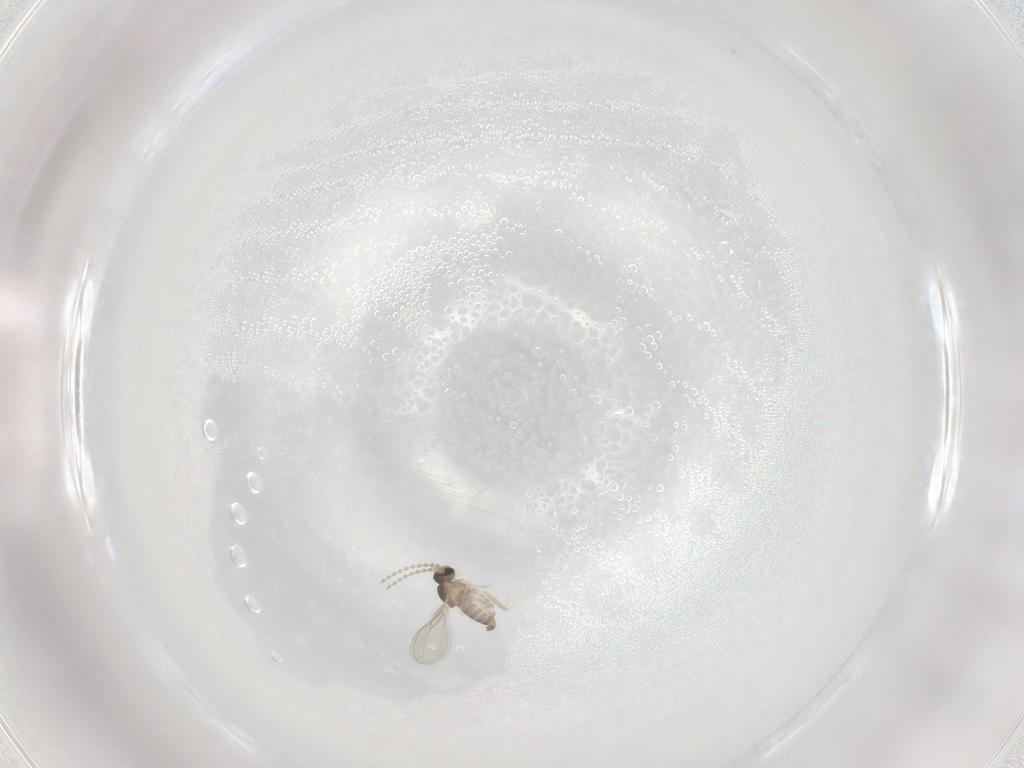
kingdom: Animalia
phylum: Arthropoda
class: Insecta
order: Diptera
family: Cecidomyiidae
